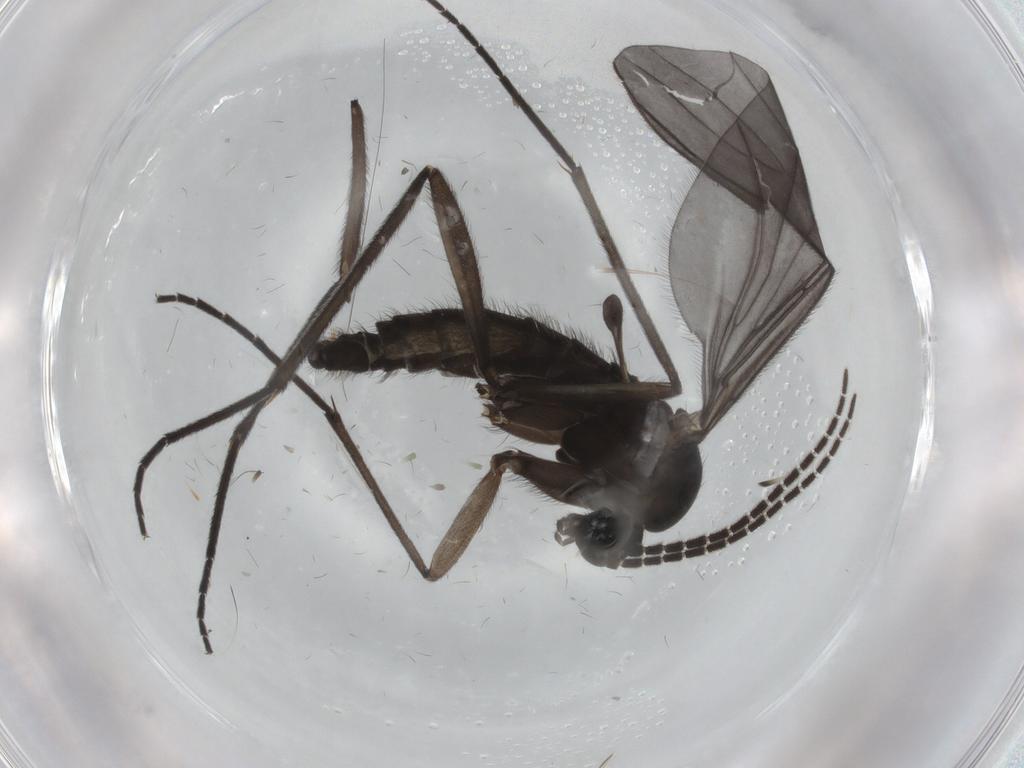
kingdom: Animalia
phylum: Arthropoda
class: Insecta
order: Diptera
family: Sciaridae
